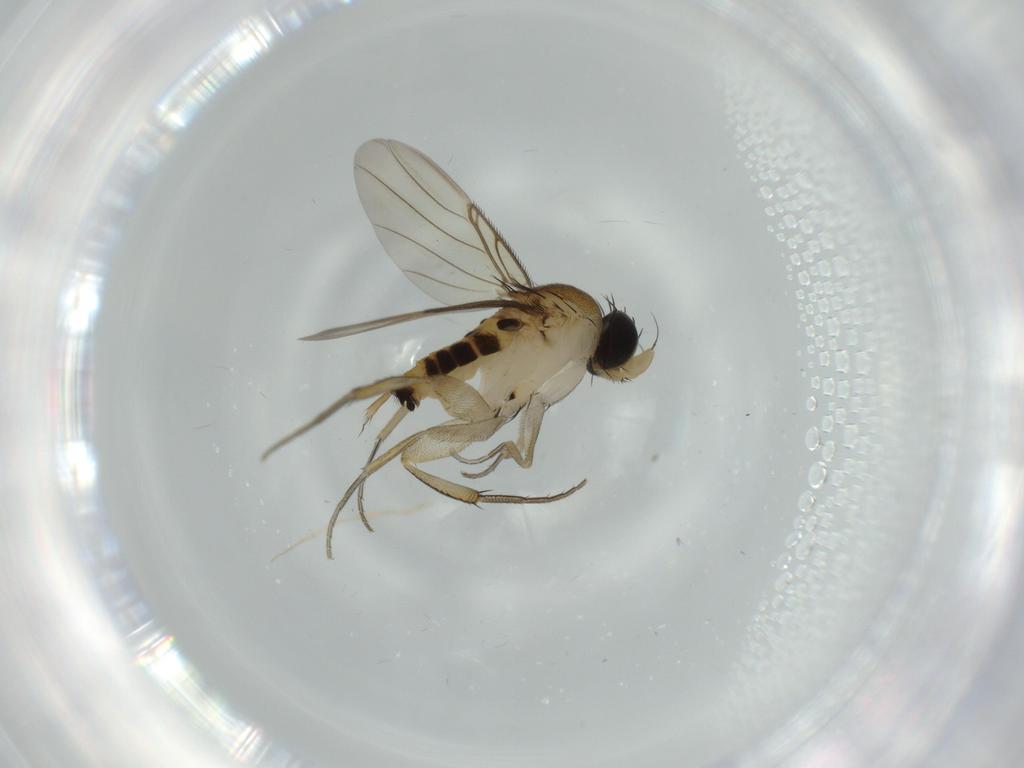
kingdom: Animalia
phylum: Arthropoda
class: Insecta
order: Diptera
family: Phoridae
